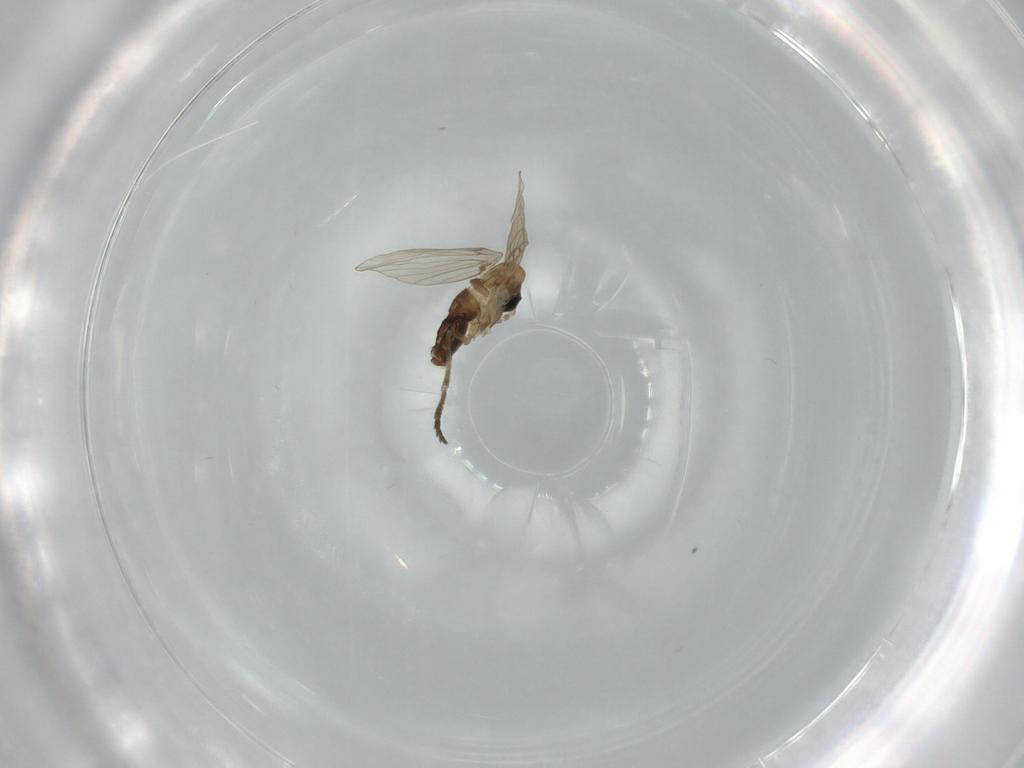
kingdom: Animalia
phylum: Arthropoda
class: Insecta
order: Diptera
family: Psychodidae
